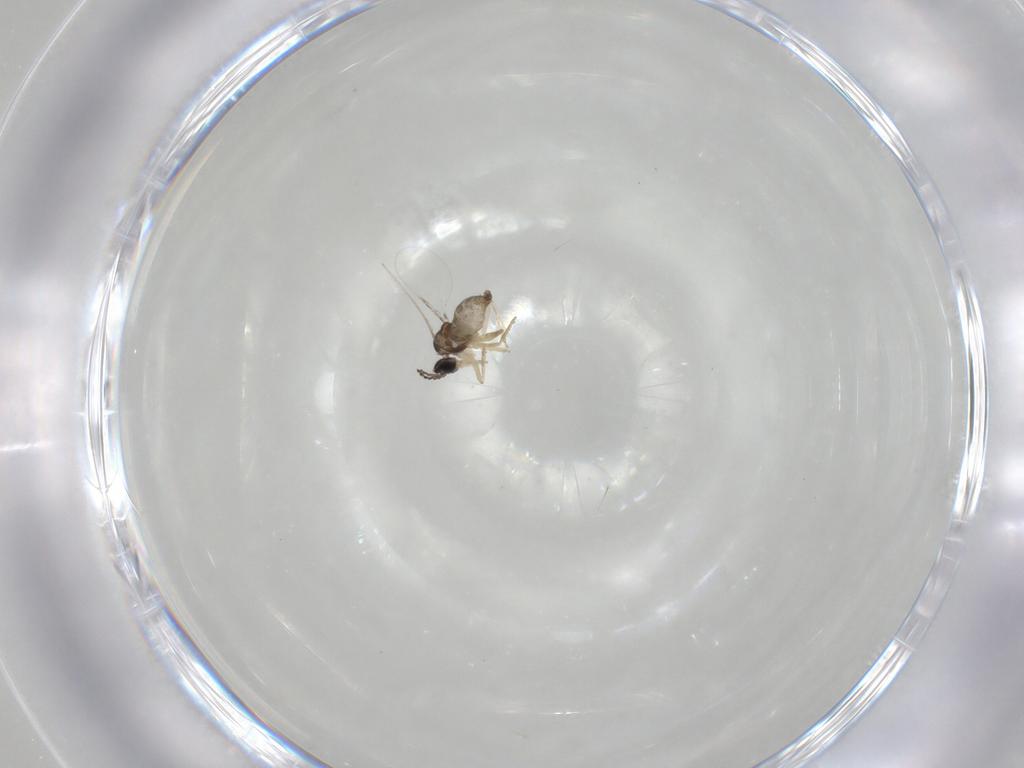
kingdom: Animalia
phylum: Arthropoda
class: Insecta
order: Diptera
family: Cecidomyiidae
